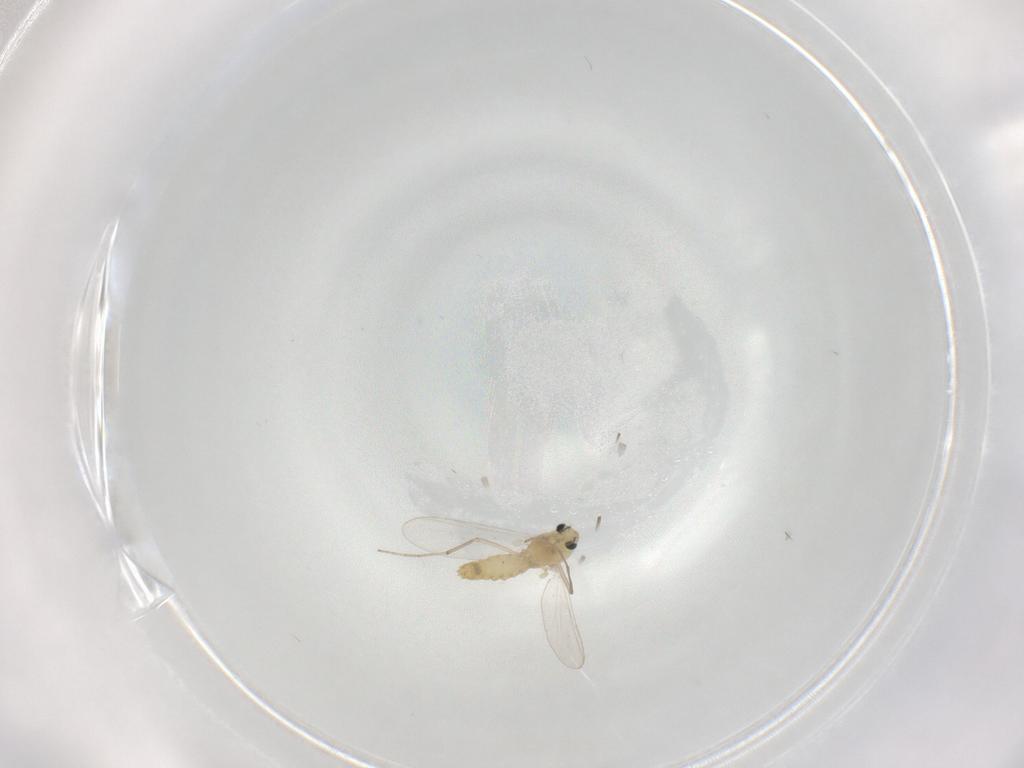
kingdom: Animalia
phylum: Arthropoda
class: Insecta
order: Diptera
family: Chironomidae
